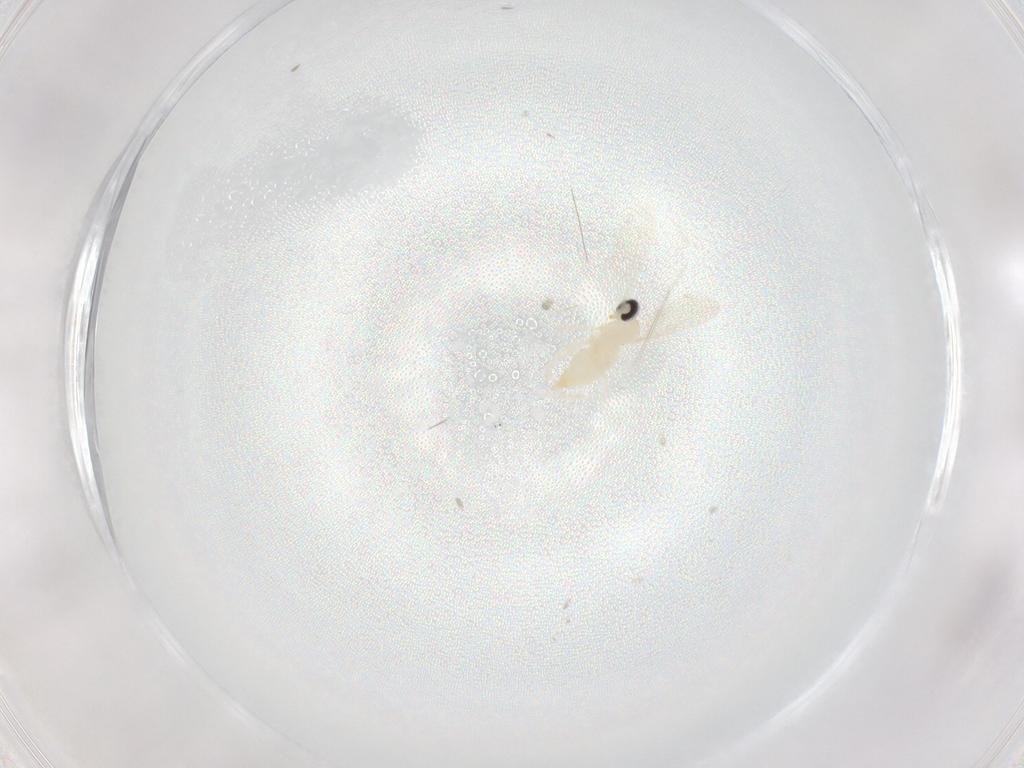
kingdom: Animalia
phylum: Arthropoda
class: Insecta
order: Diptera
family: Cecidomyiidae
